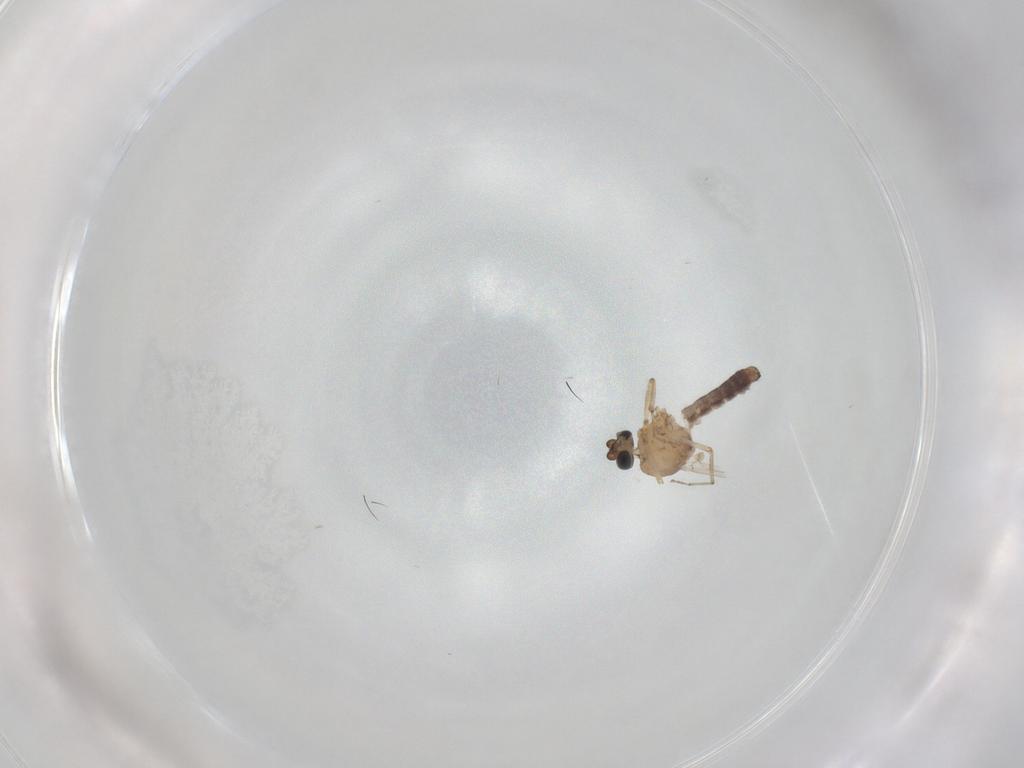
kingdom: Animalia
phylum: Arthropoda
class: Insecta
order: Diptera
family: Ceratopogonidae
